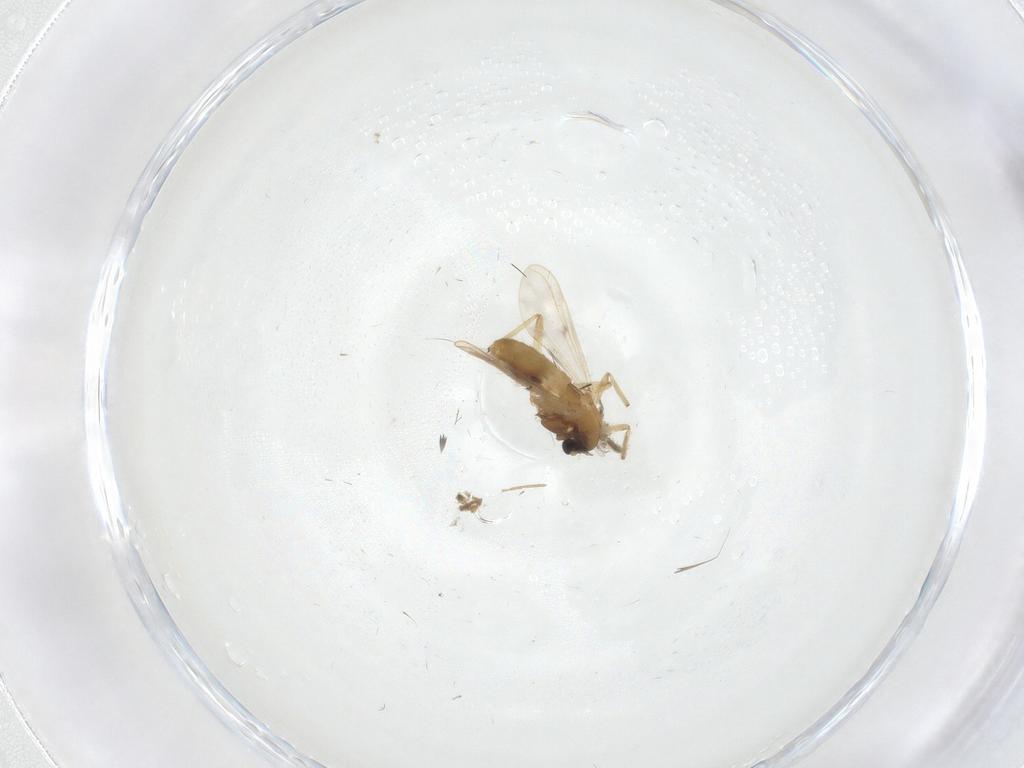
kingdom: Animalia
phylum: Arthropoda
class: Insecta
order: Diptera
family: Chironomidae
